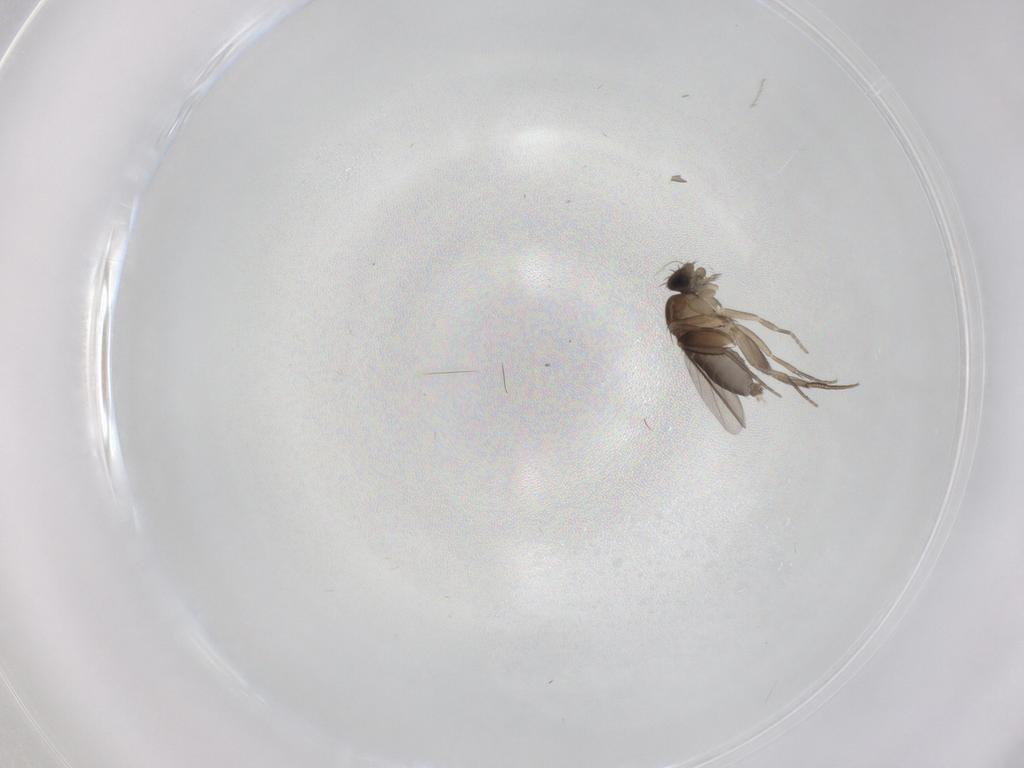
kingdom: Animalia
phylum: Arthropoda
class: Insecta
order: Diptera
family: Phoridae
